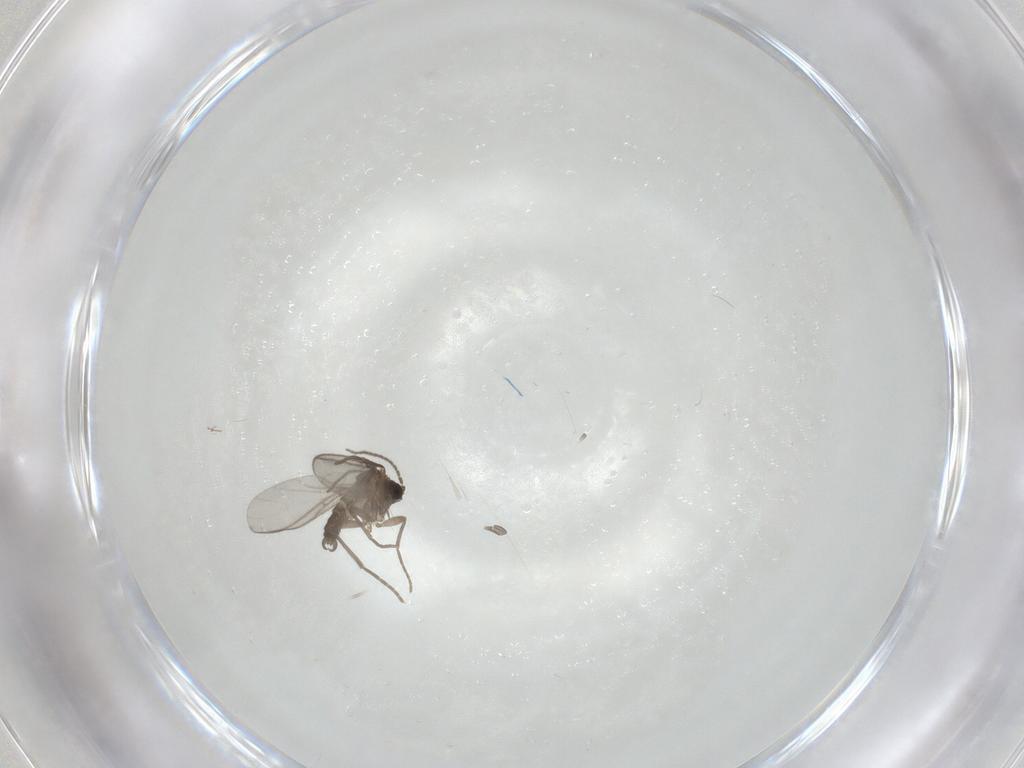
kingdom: Animalia
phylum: Arthropoda
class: Insecta
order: Diptera
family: Sciaridae
